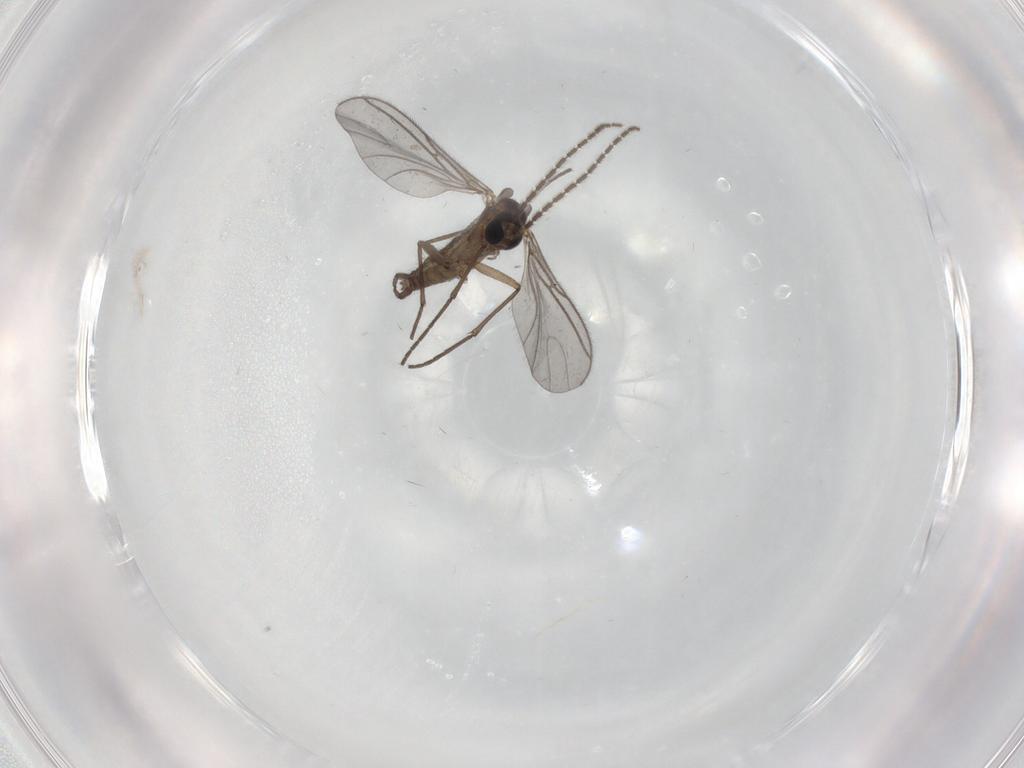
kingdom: Animalia
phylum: Arthropoda
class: Insecta
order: Diptera
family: Sciaridae
